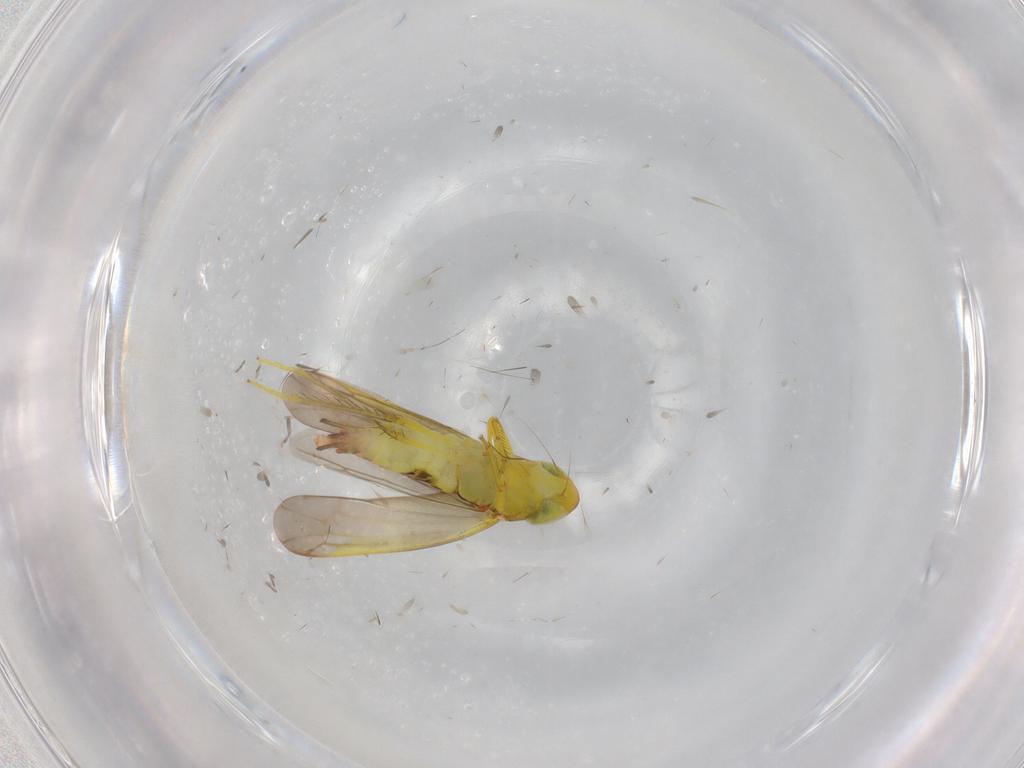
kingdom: Animalia
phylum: Arthropoda
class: Insecta
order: Hemiptera
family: Cicadellidae
